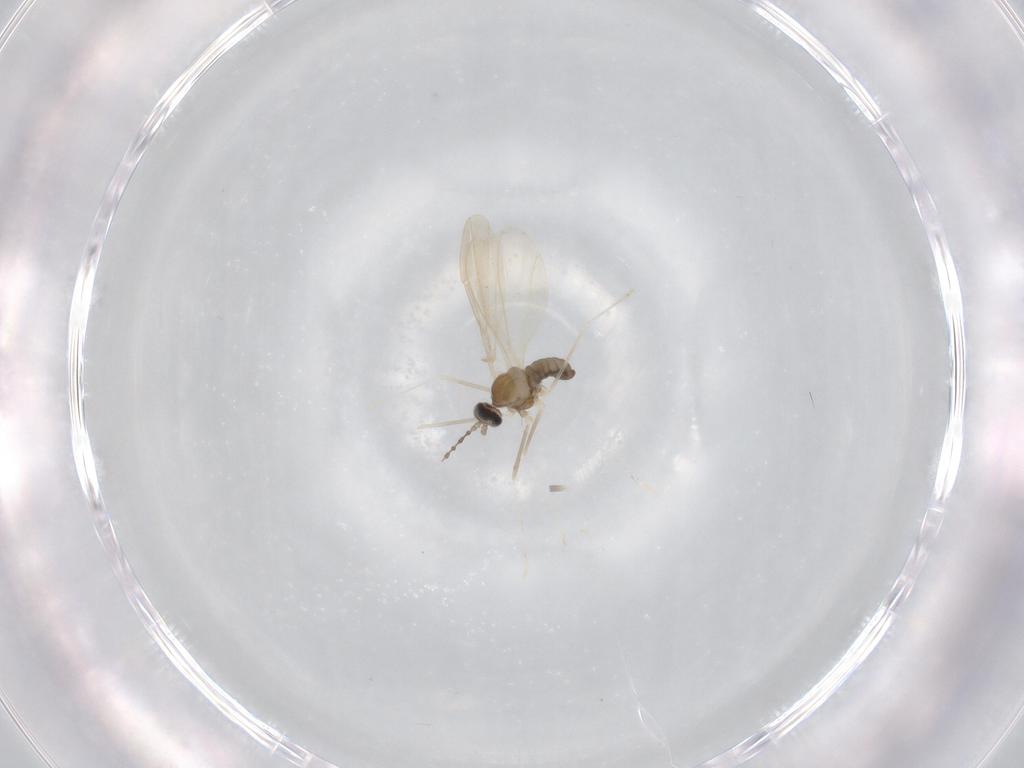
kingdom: Animalia
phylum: Arthropoda
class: Insecta
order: Diptera
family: Cecidomyiidae
